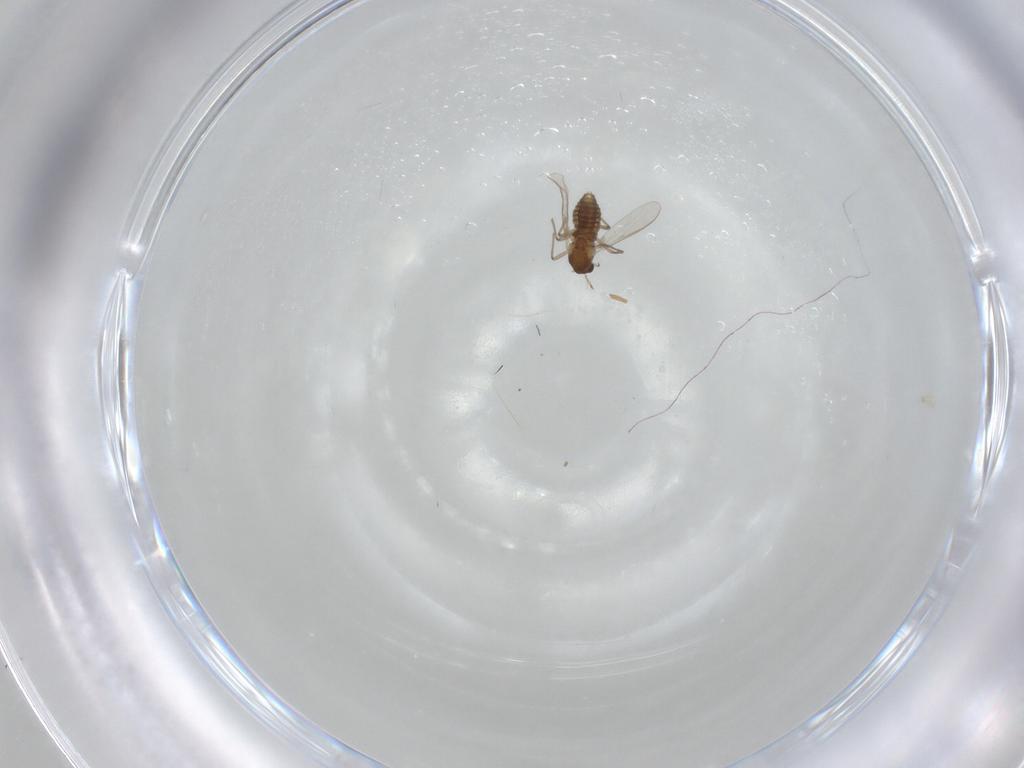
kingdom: Animalia
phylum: Arthropoda
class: Insecta
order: Diptera
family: Chironomidae
